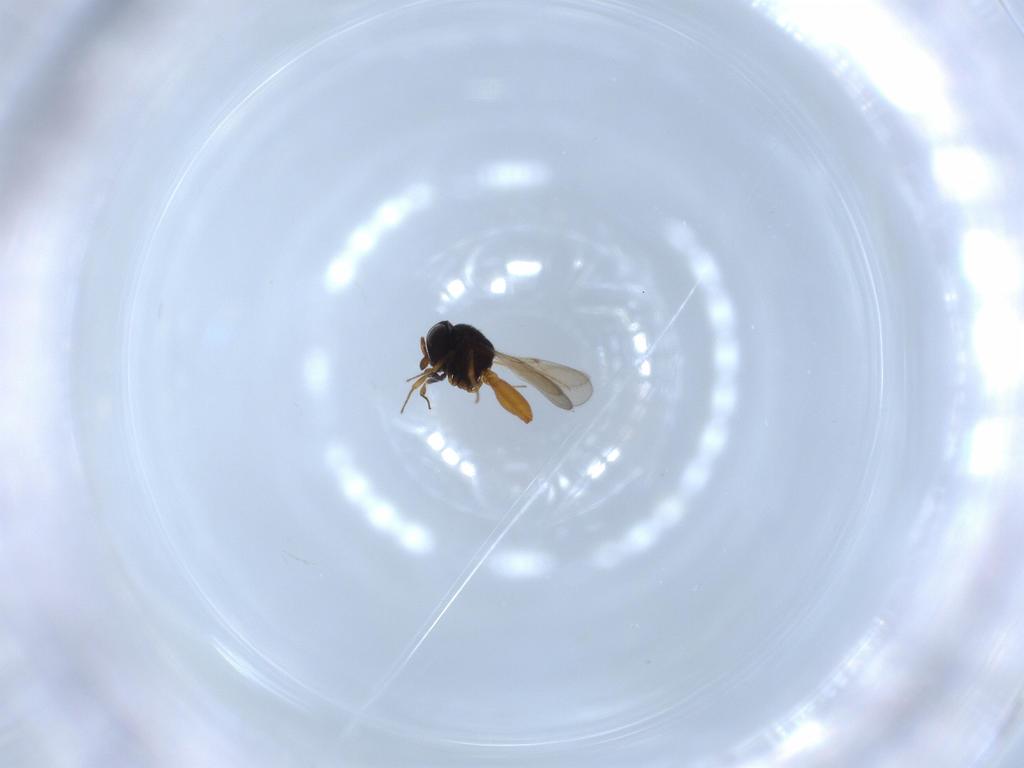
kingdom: Animalia
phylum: Arthropoda
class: Insecta
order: Hymenoptera
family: Scelionidae
